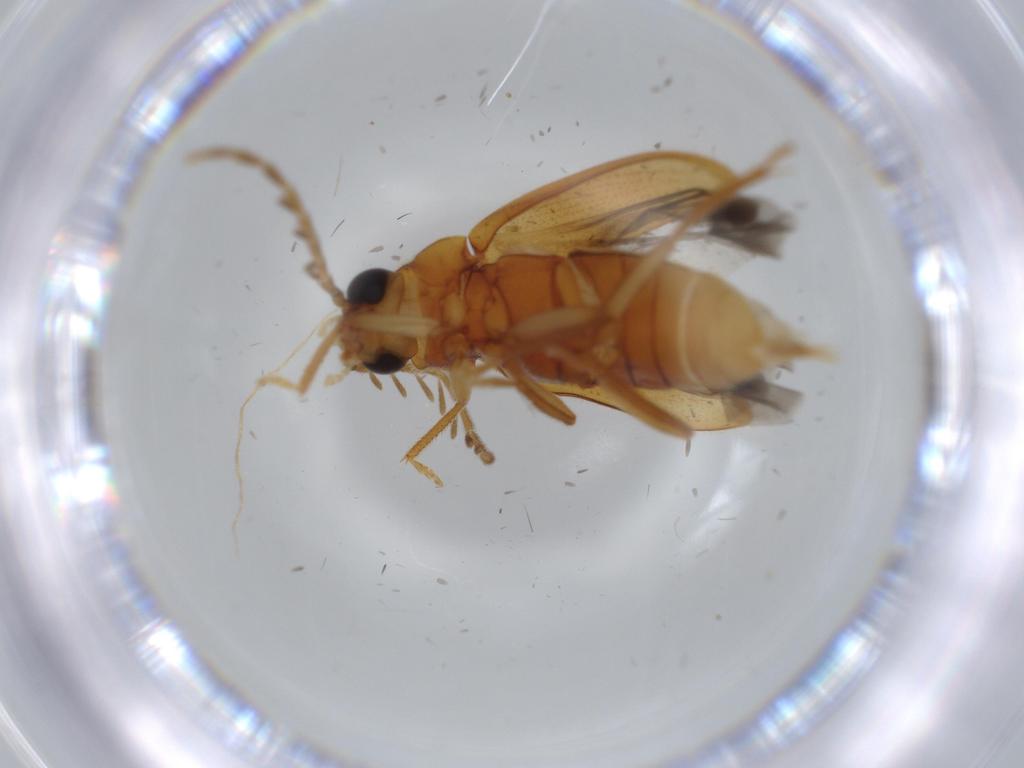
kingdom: Animalia
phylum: Arthropoda
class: Insecta
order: Coleoptera
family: Ptilodactylidae
